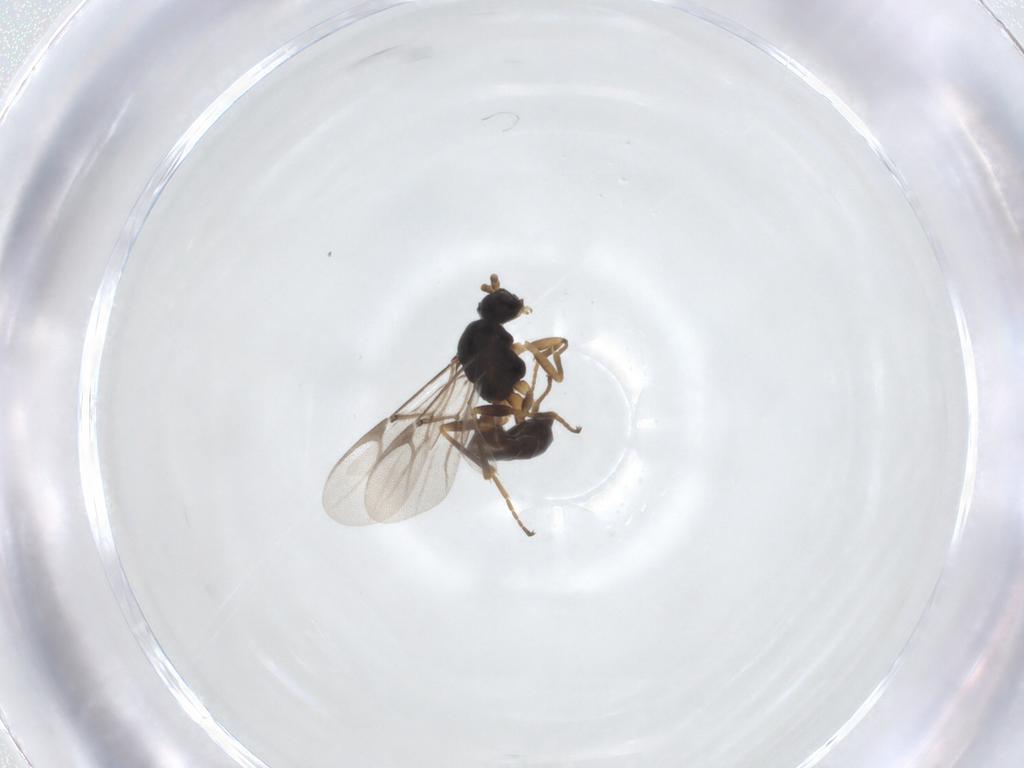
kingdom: Animalia
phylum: Arthropoda
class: Insecta
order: Hymenoptera
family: Braconidae
